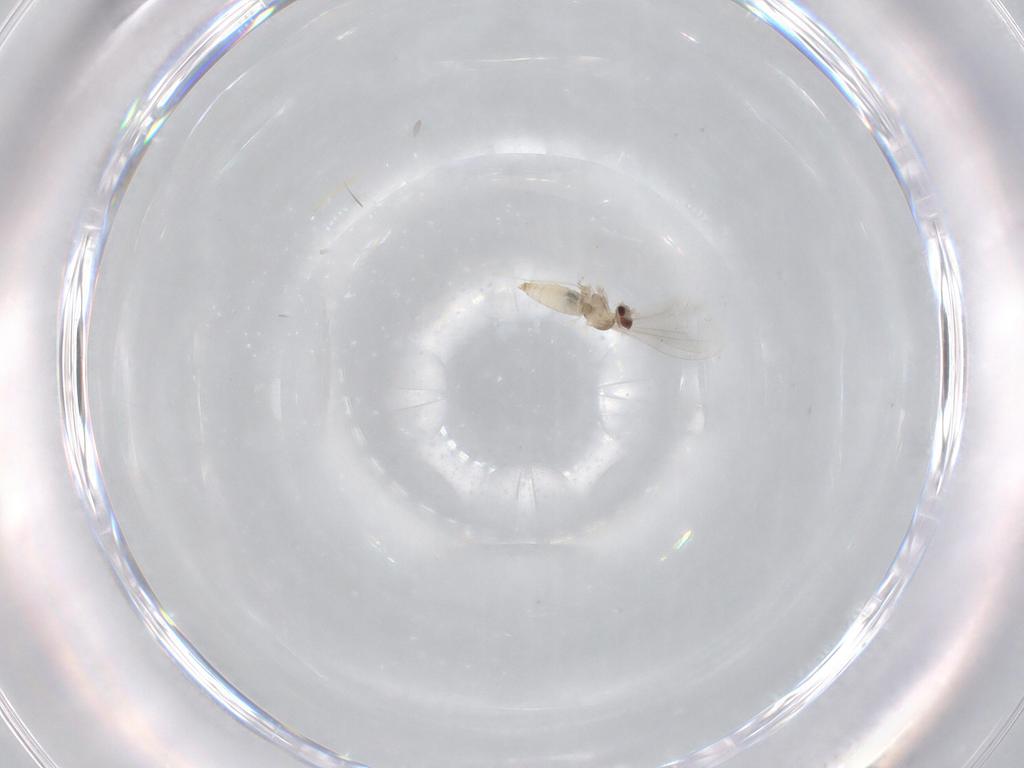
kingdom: Animalia
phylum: Arthropoda
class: Insecta
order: Diptera
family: Cecidomyiidae
